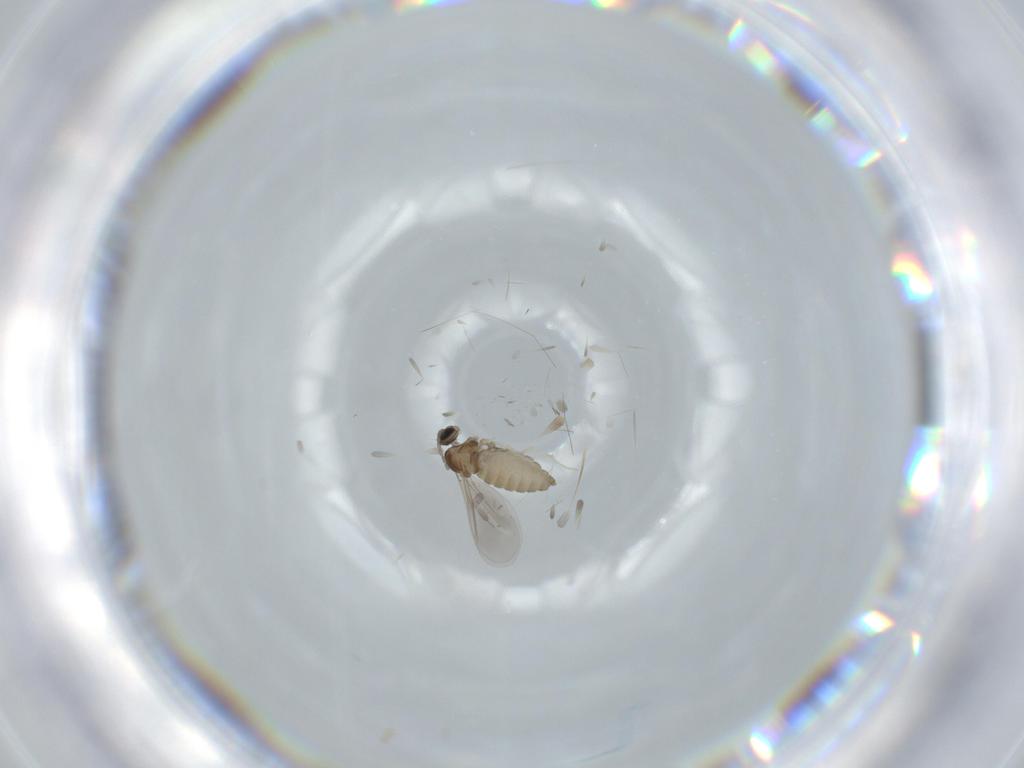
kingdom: Animalia
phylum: Arthropoda
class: Insecta
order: Diptera
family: Cecidomyiidae
